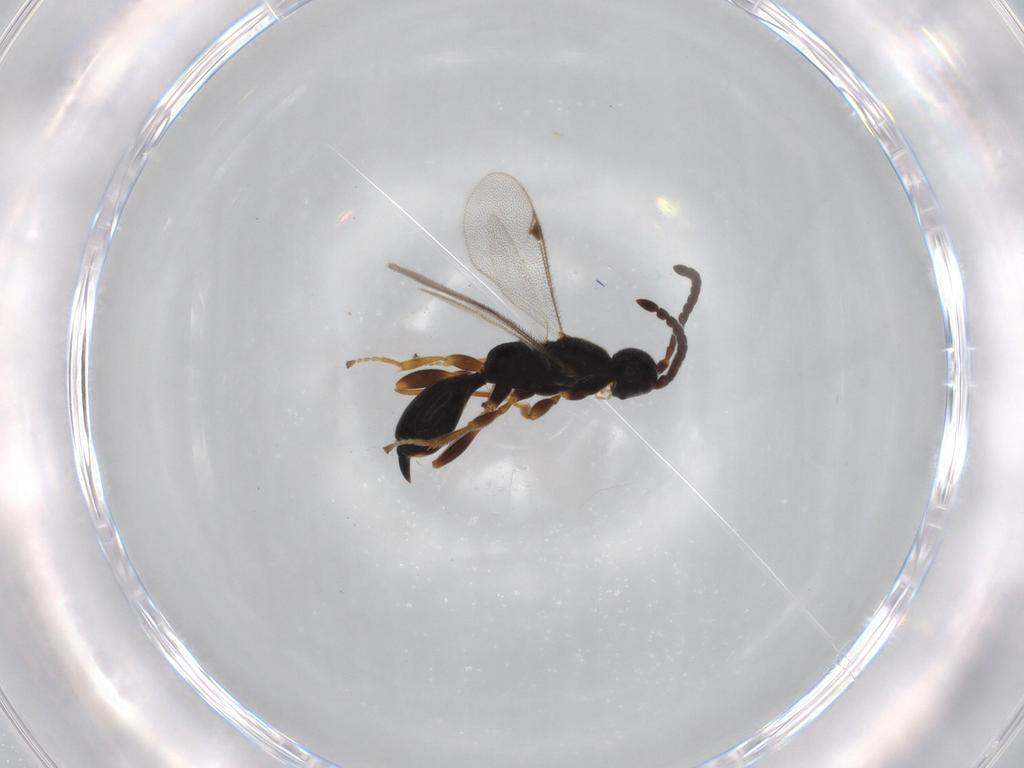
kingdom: Animalia
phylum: Arthropoda
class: Insecta
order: Hymenoptera
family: Proctotrupidae
